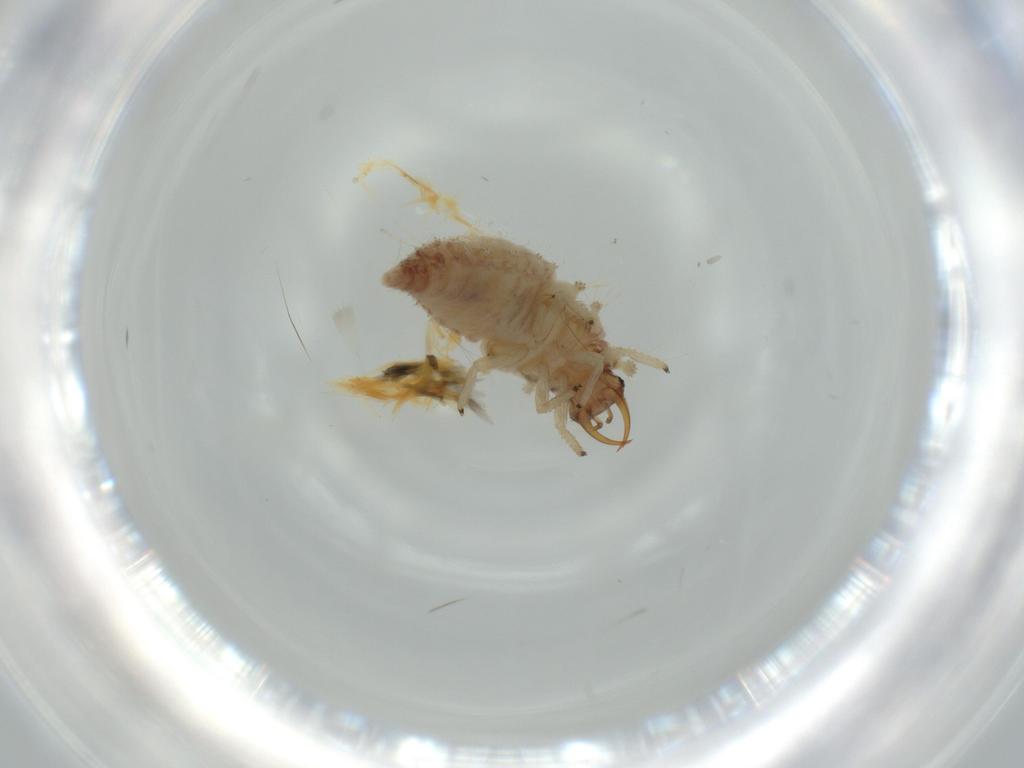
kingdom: Animalia
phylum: Arthropoda
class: Insecta
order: Neuroptera
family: Chrysopidae
